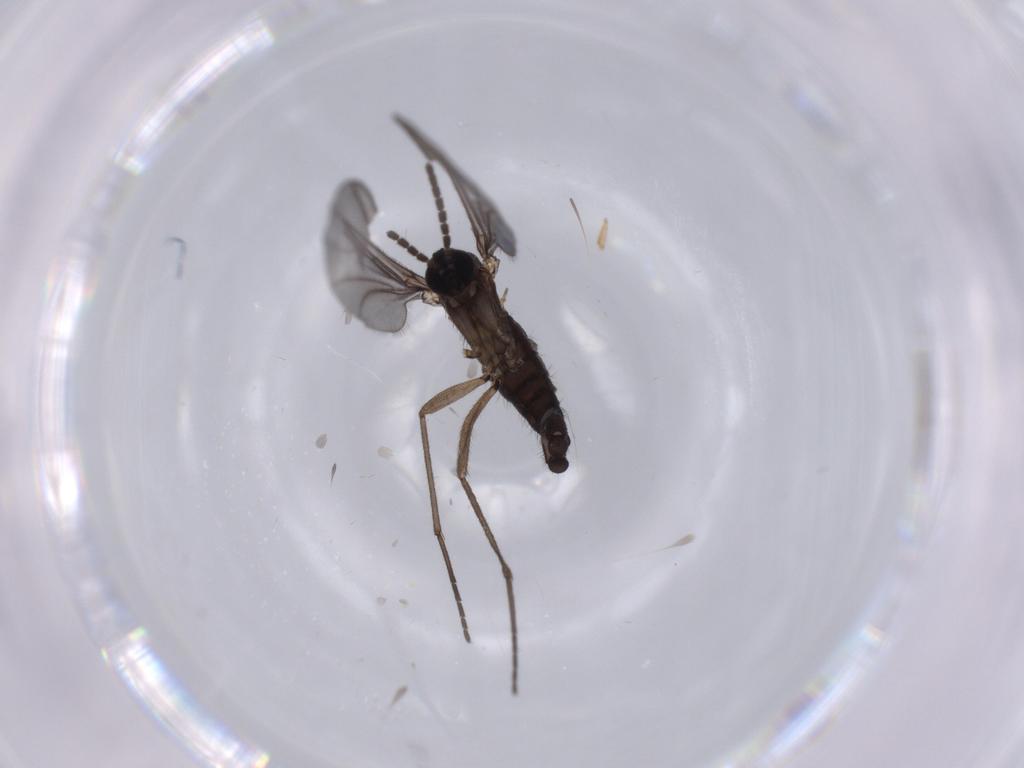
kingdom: Animalia
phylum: Arthropoda
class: Insecta
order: Diptera
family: Sciaridae
